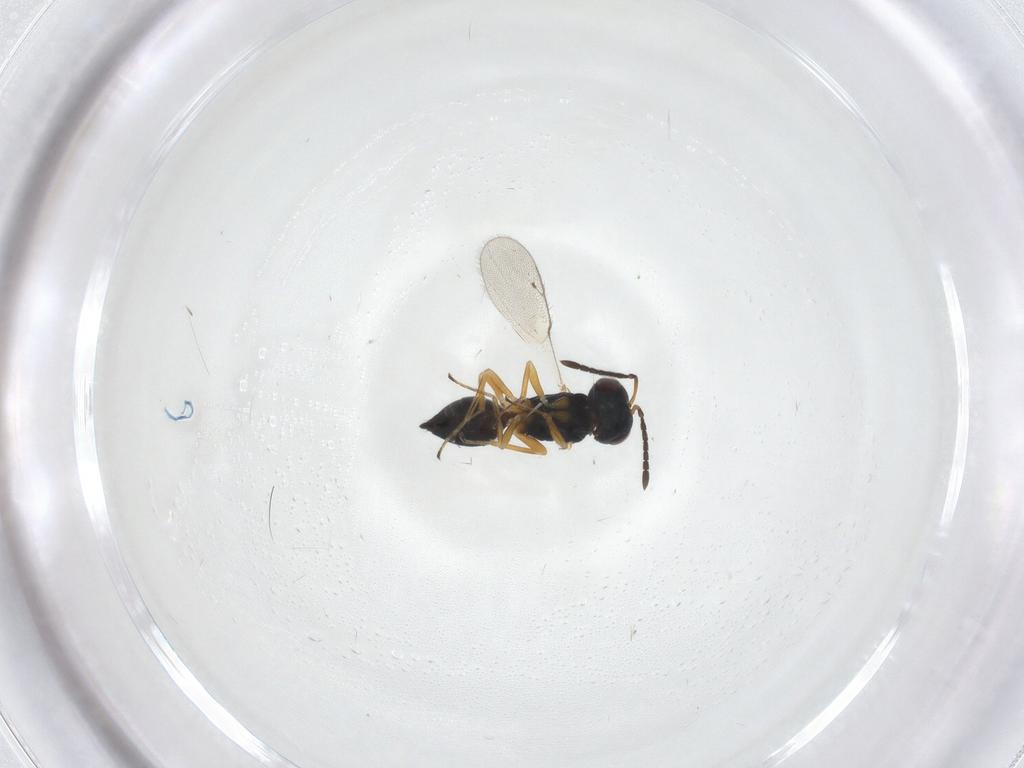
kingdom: Animalia
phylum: Arthropoda
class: Insecta
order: Hymenoptera
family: Pteromalidae
